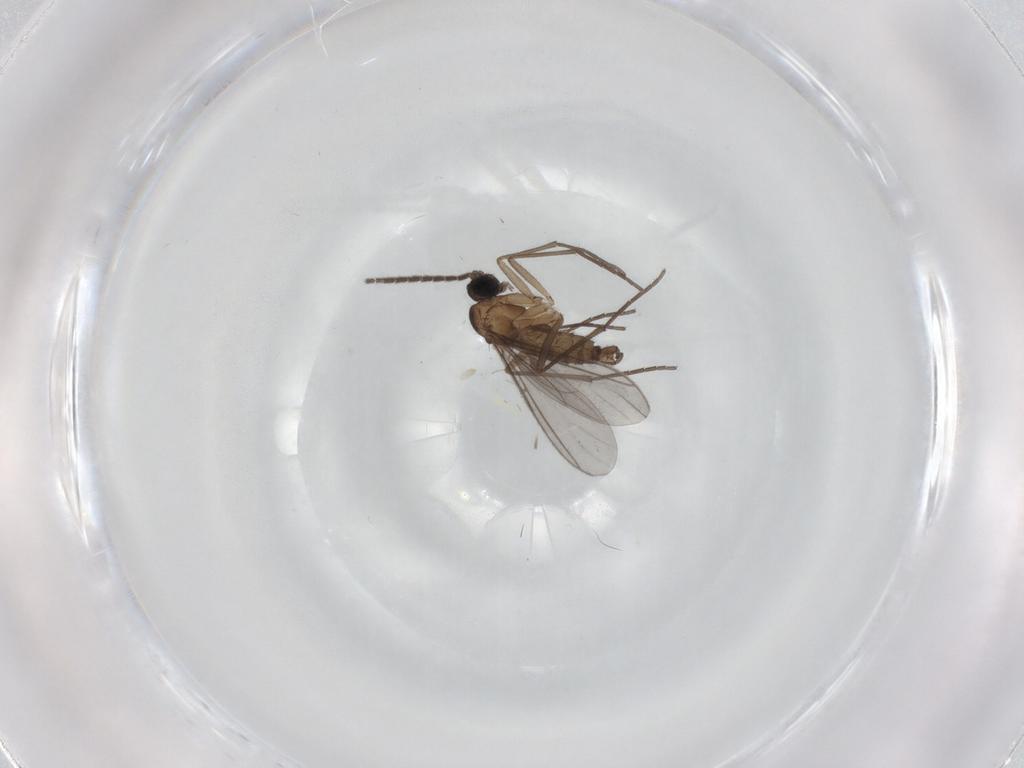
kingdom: Animalia
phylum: Arthropoda
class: Insecta
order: Diptera
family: Sciaridae
